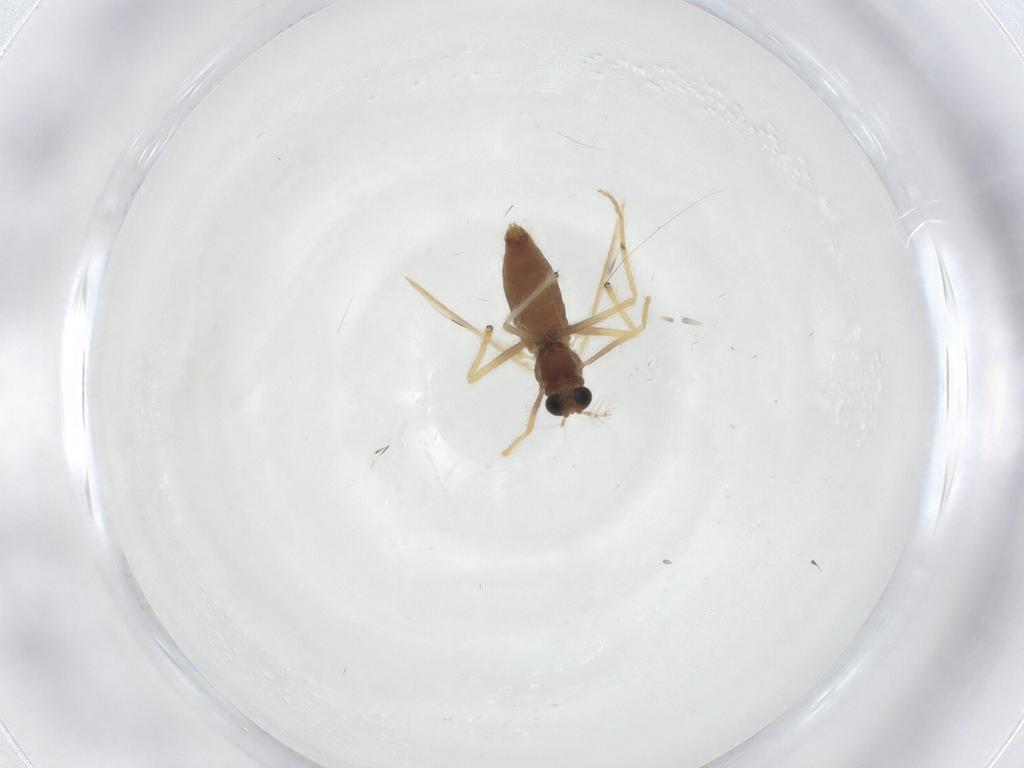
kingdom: Animalia
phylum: Arthropoda
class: Insecta
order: Diptera
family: Chironomidae
